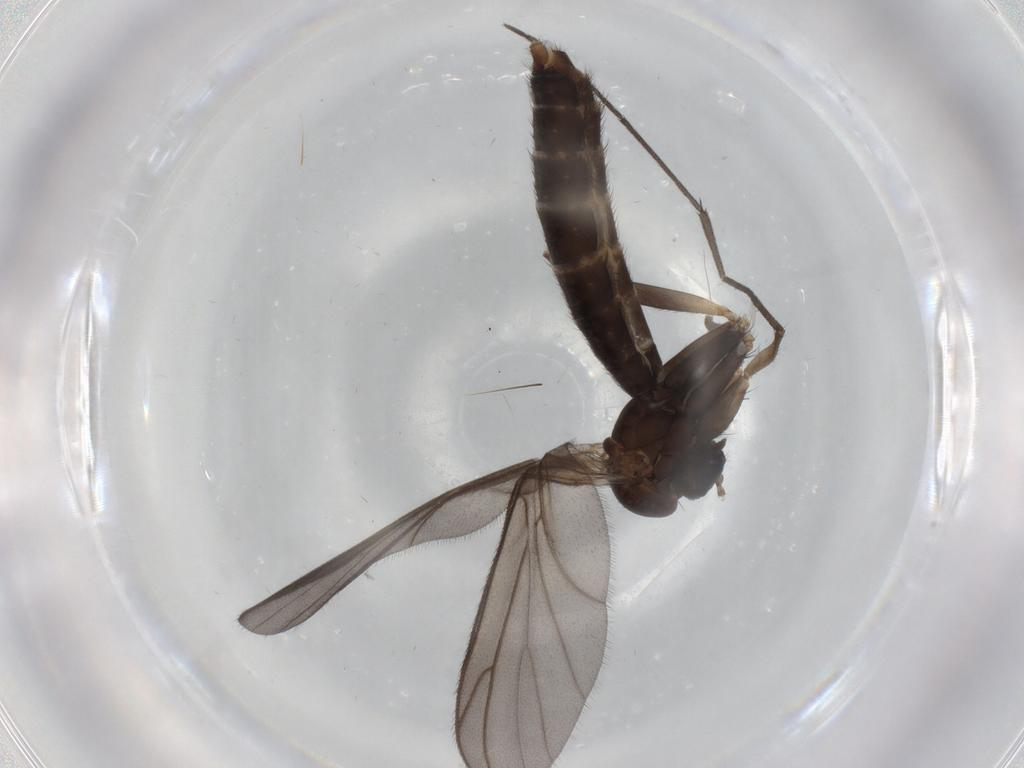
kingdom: Animalia
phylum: Arthropoda
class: Insecta
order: Diptera
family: Ditomyiidae
